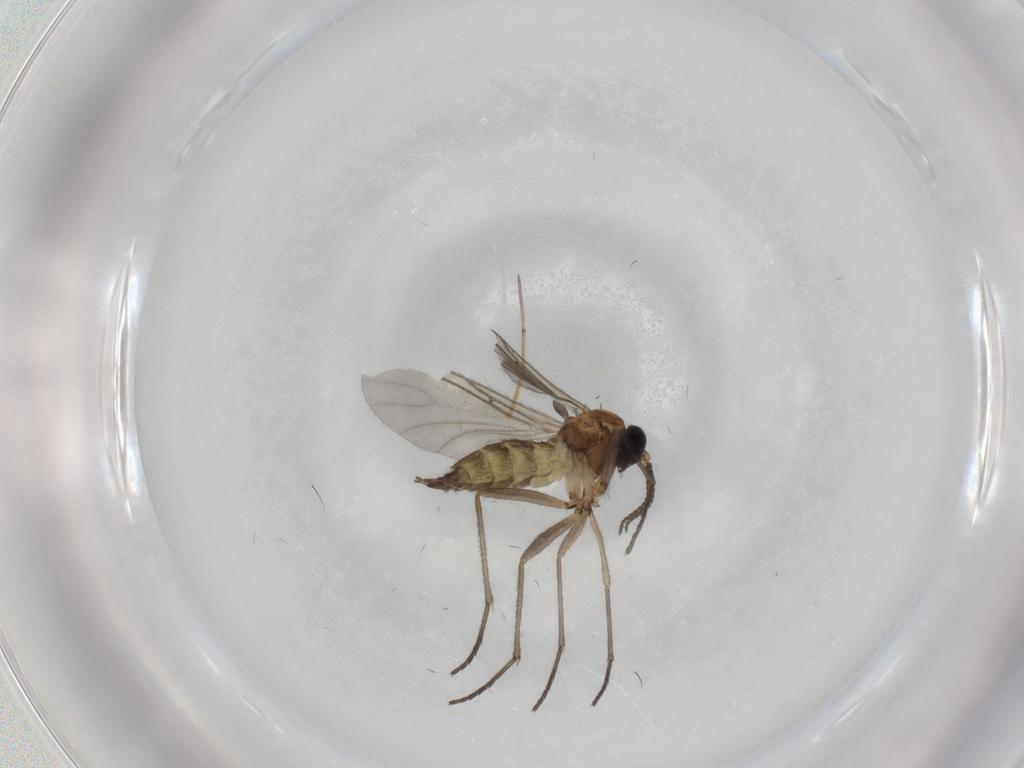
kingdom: Animalia
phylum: Arthropoda
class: Insecta
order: Diptera
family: Sciaridae
